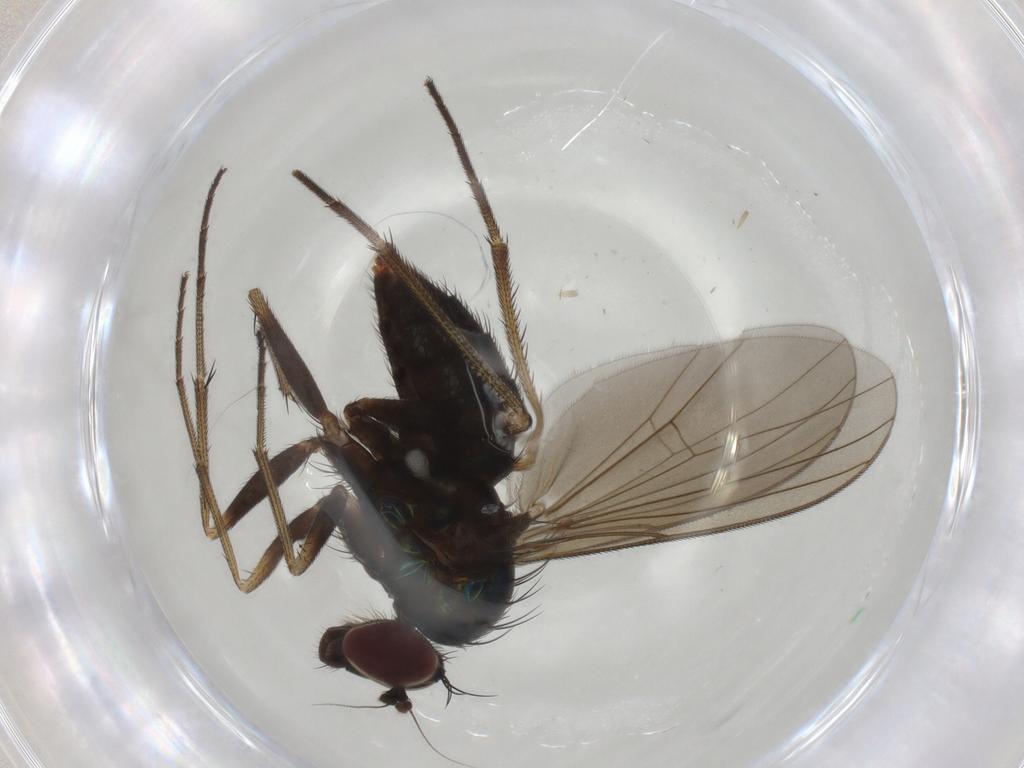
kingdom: Animalia
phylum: Arthropoda
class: Insecta
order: Diptera
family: Dolichopodidae
